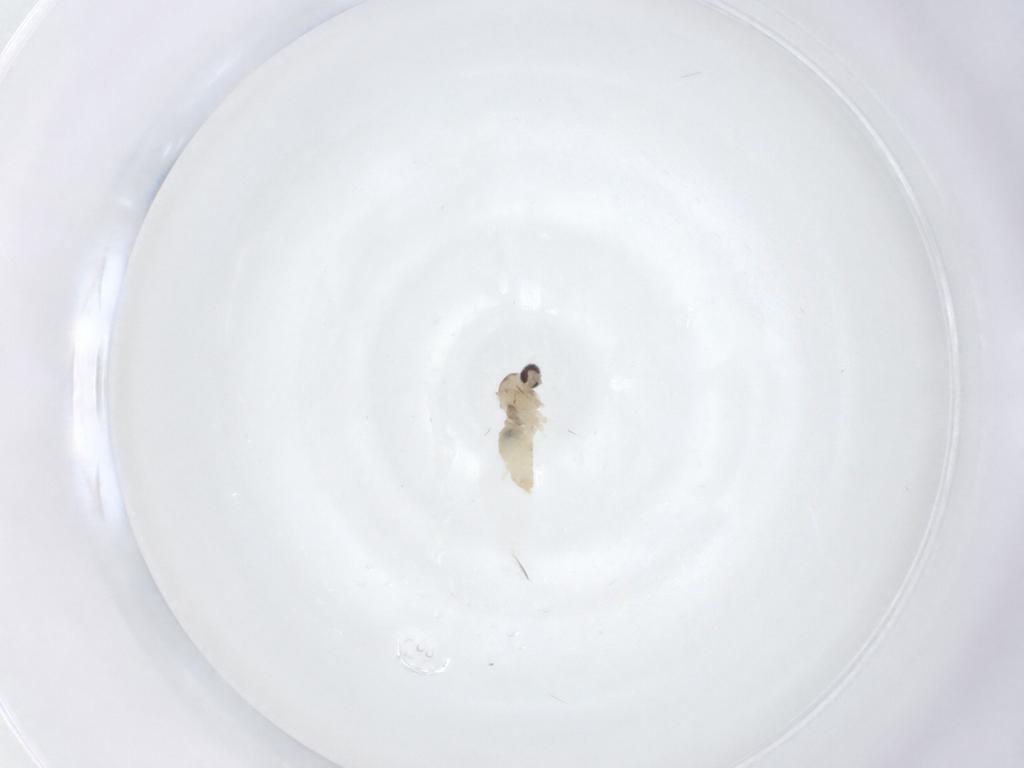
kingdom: Animalia
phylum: Arthropoda
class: Insecta
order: Diptera
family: Cecidomyiidae
